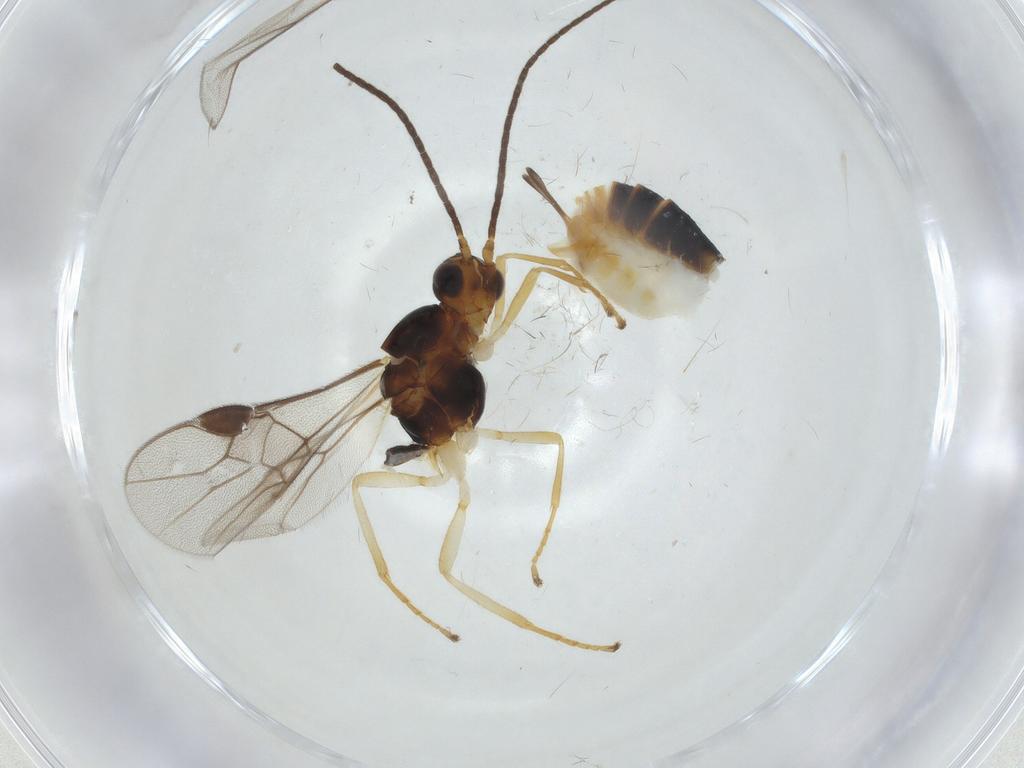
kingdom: Animalia
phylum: Arthropoda
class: Insecta
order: Hymenoptera
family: Braconidae
